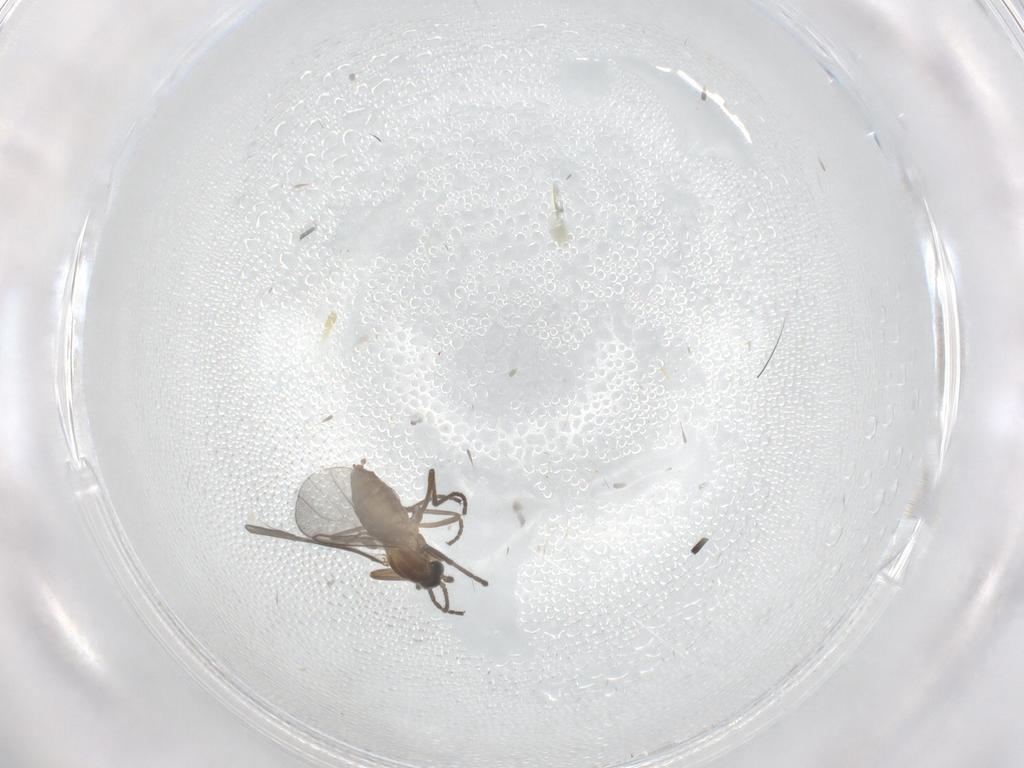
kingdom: Animalia
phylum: Arthropoda
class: Insecta
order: Diptera
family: Cecidomyiidae
